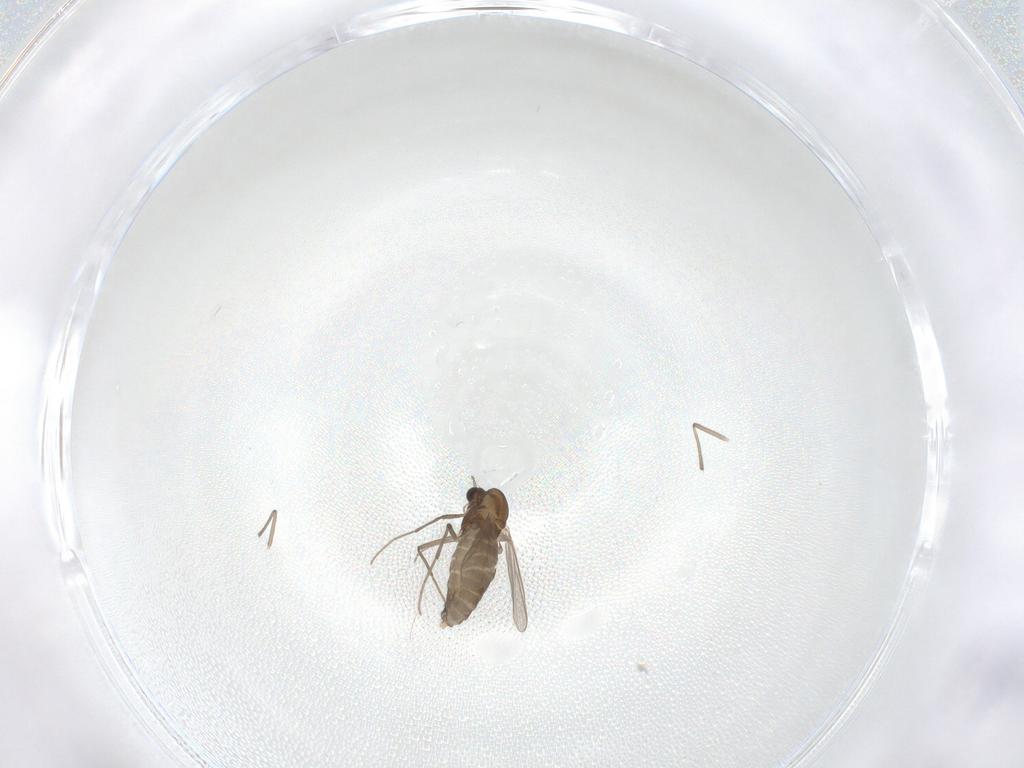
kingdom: Animalia
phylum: Arthropoda
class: Insecta
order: Diptera
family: Chironomidae
